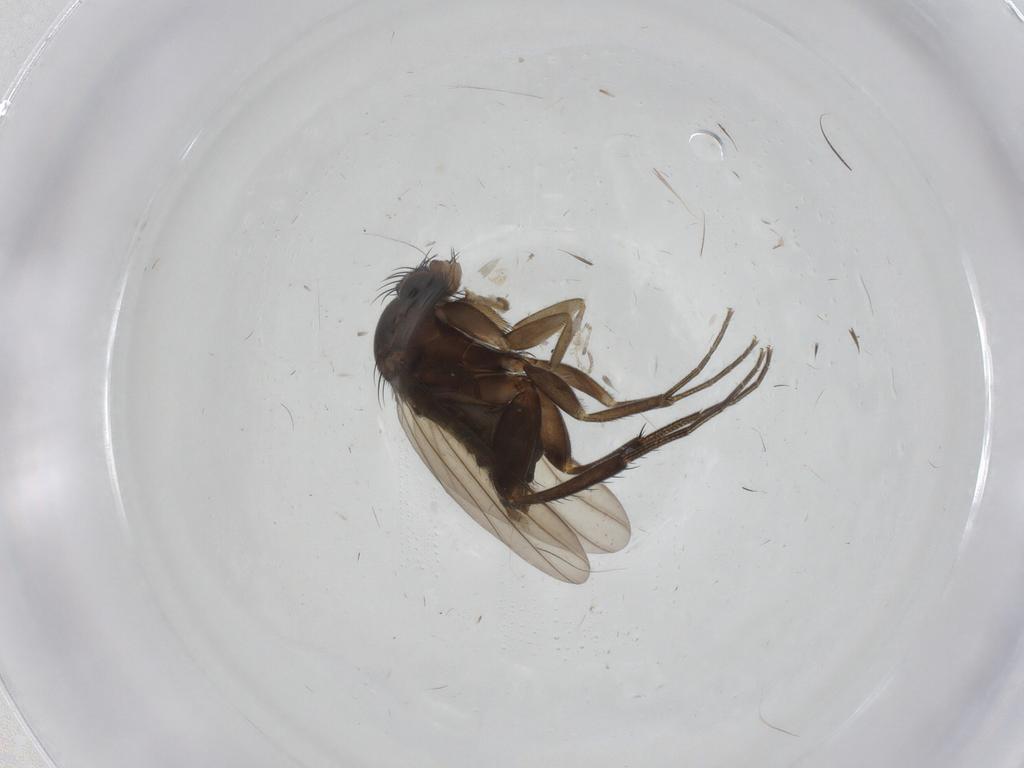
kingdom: Animalia
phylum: Arthropoda
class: Insecta
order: Diptera
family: Phoridae
